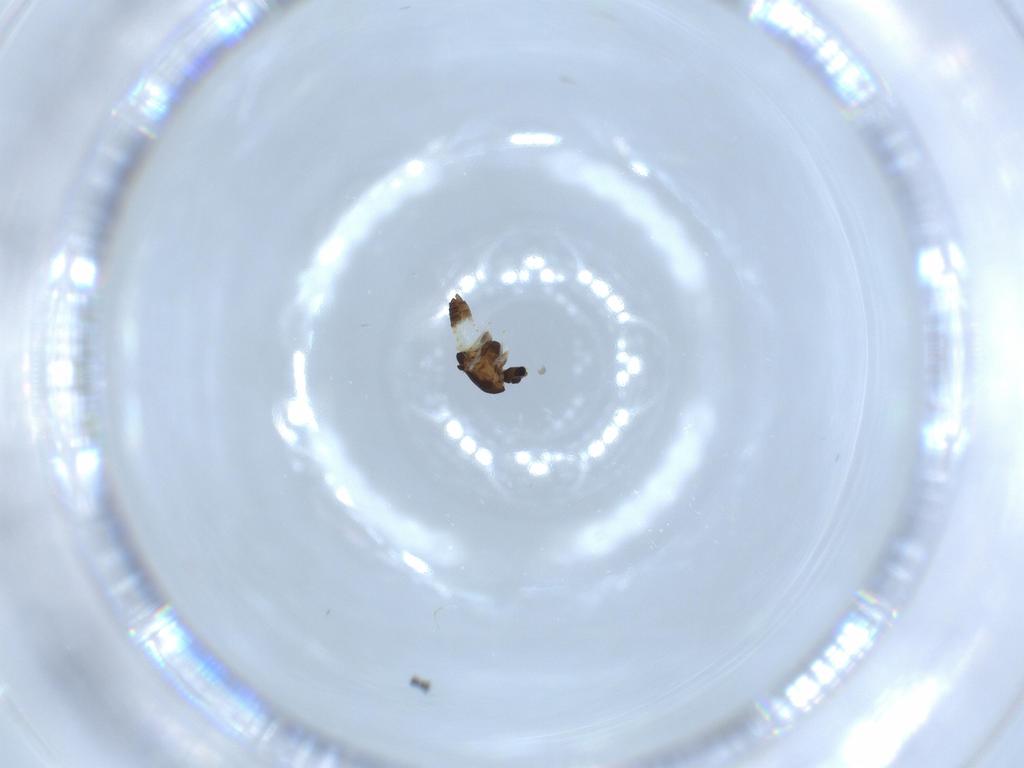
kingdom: Animalia
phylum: Arthropoda
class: Insecta
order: Diptera
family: Chironomidae
